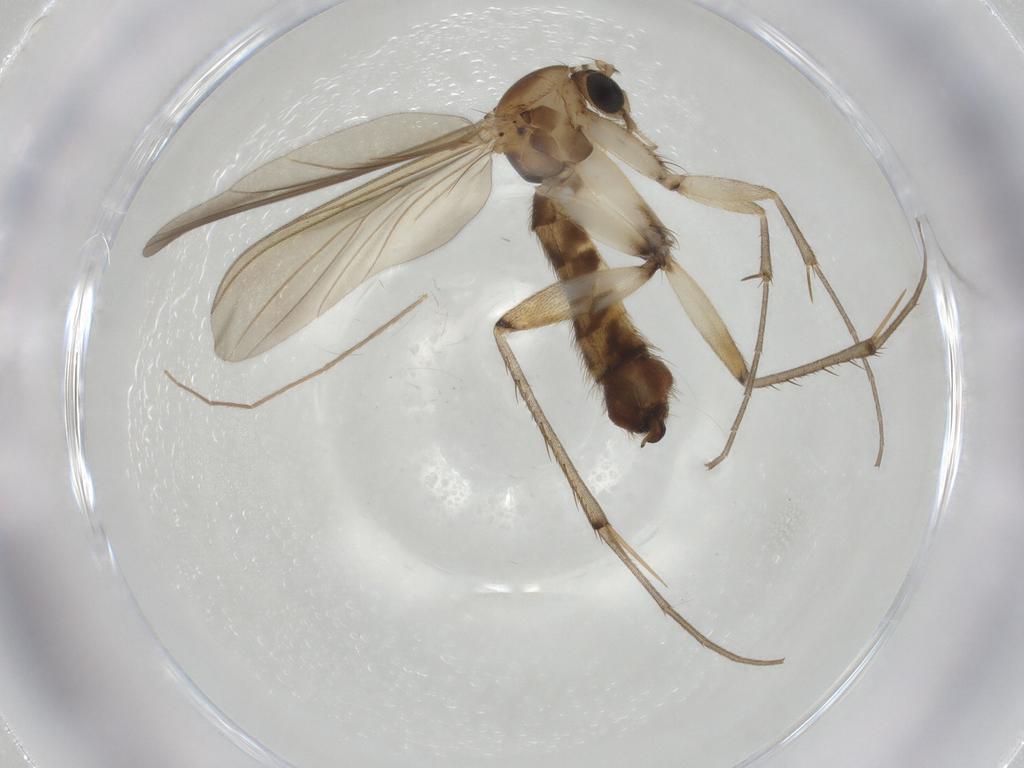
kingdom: Animalia
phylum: Arthropoda
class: Insecta
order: Diptera
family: Mycetophilidae
